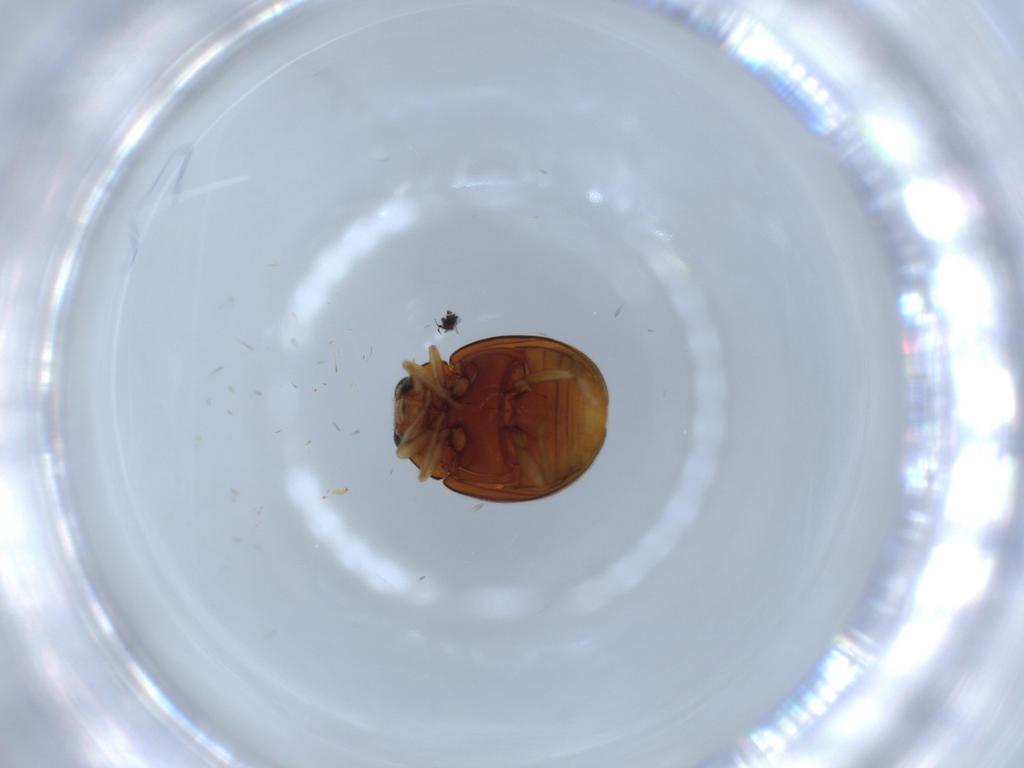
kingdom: Animalia
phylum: Arthropoda
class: Insecta
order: Coleoptera
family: Coccinellidae
